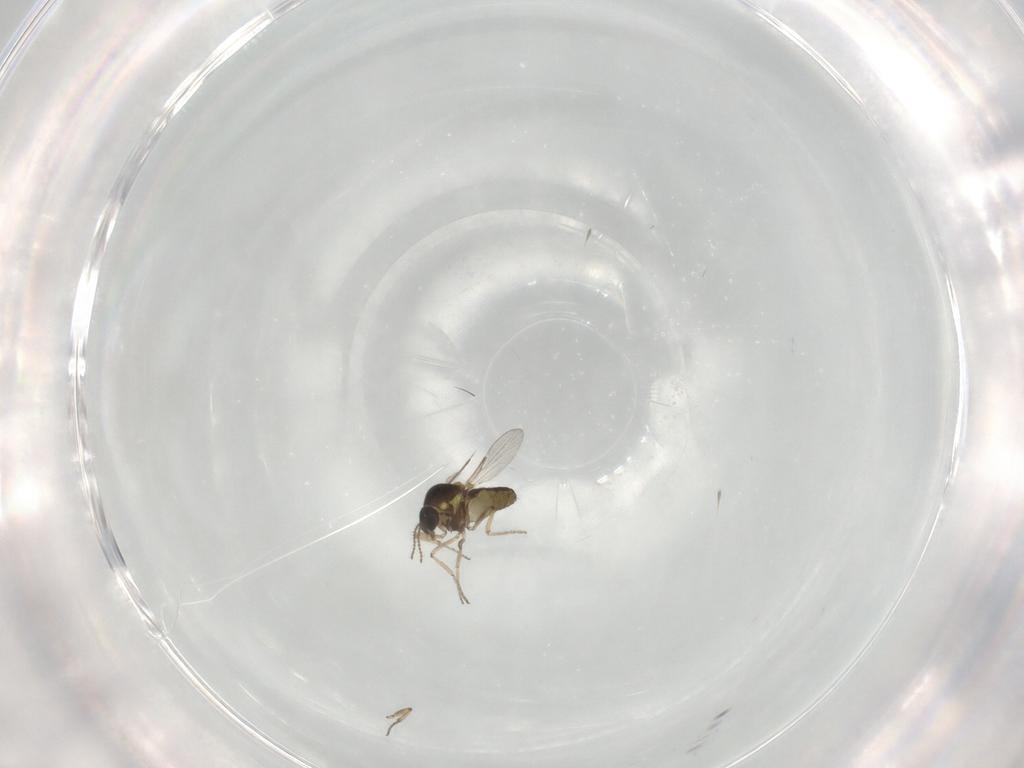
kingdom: Animalia
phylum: Arthropoda
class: Insecta
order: Diptera
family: Ceratopogonidae
